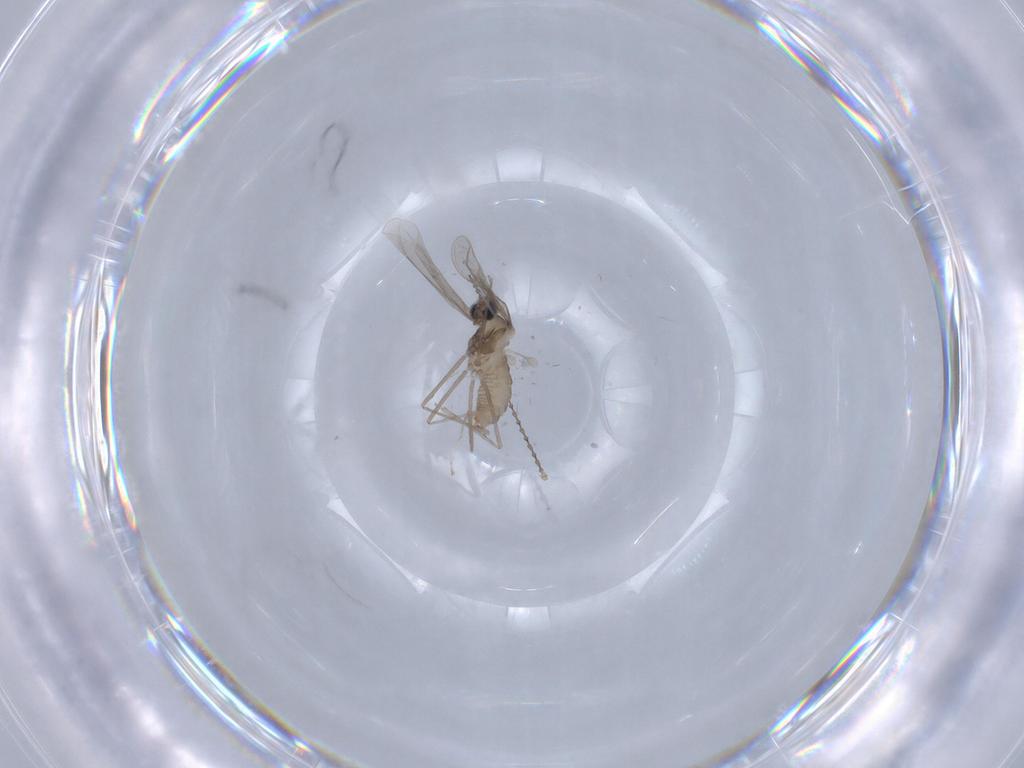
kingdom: Animalia
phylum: Arthropoda
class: Insecta
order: Diptera
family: Cecidomyiidae
